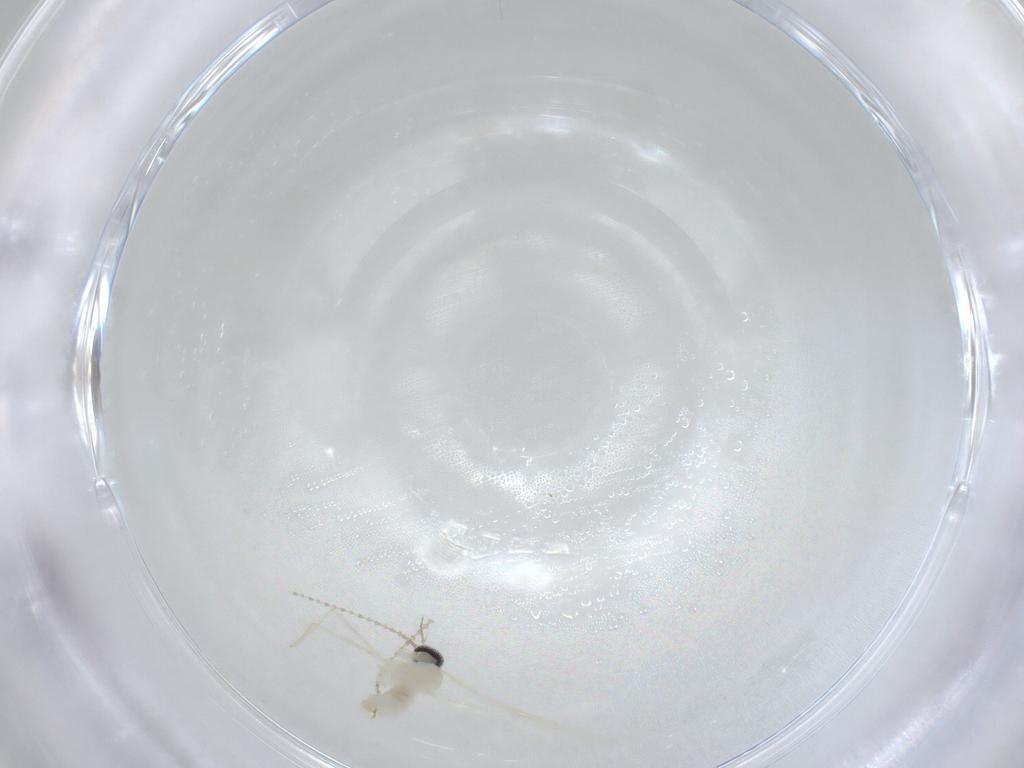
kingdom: Animalia
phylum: Arthropoda
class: Insecta
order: Diptera
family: Cecidomyiidae
